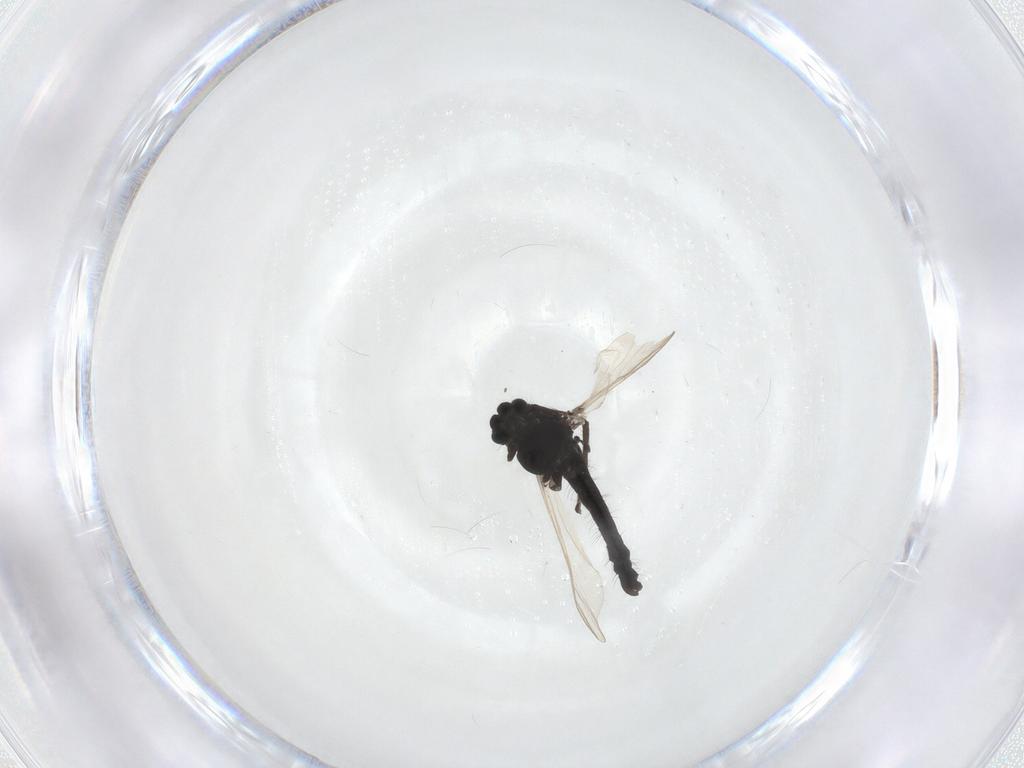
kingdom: Animalia
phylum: Arthropoda
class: Insecta
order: Diptera
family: Chironomidae
